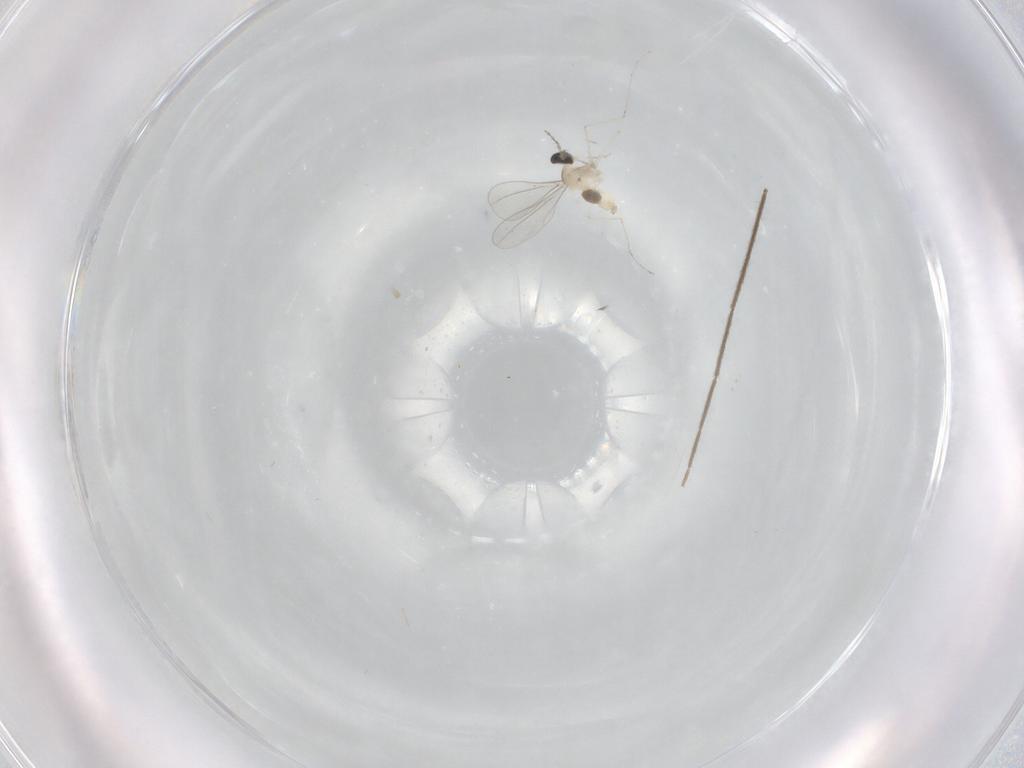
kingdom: Animalia
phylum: Arthropoda
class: Insecta
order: Diptera
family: Cecidomyiidae
